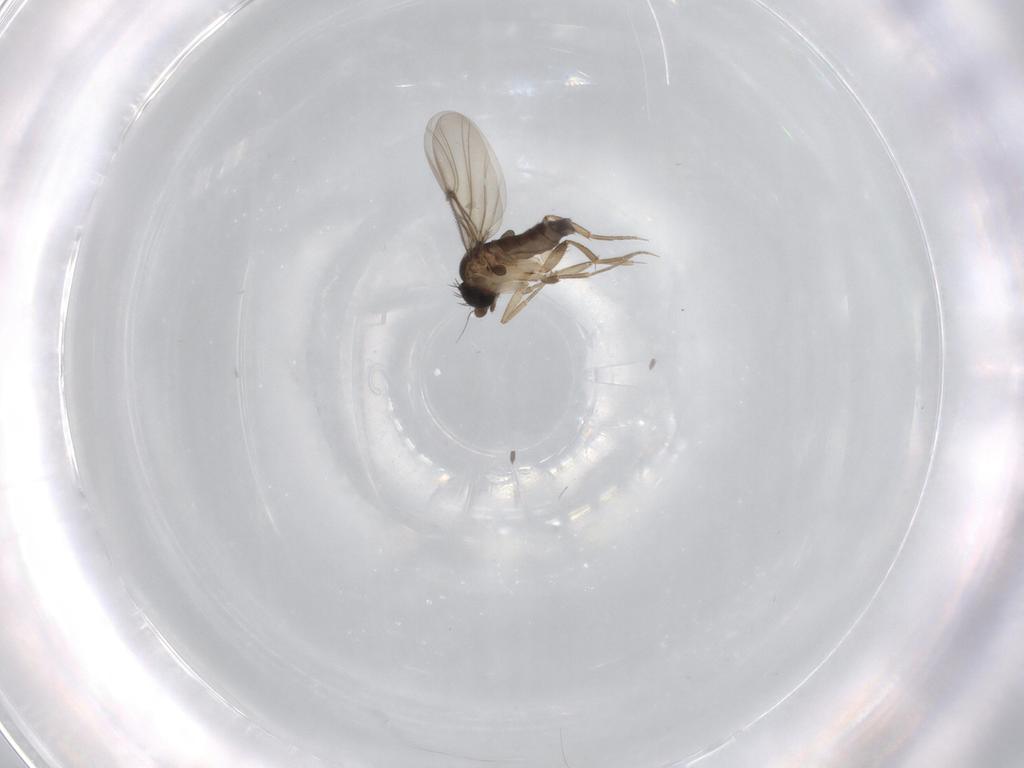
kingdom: Animalia
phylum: Arthropoda
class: Insecta
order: Diptera
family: Phoridae
